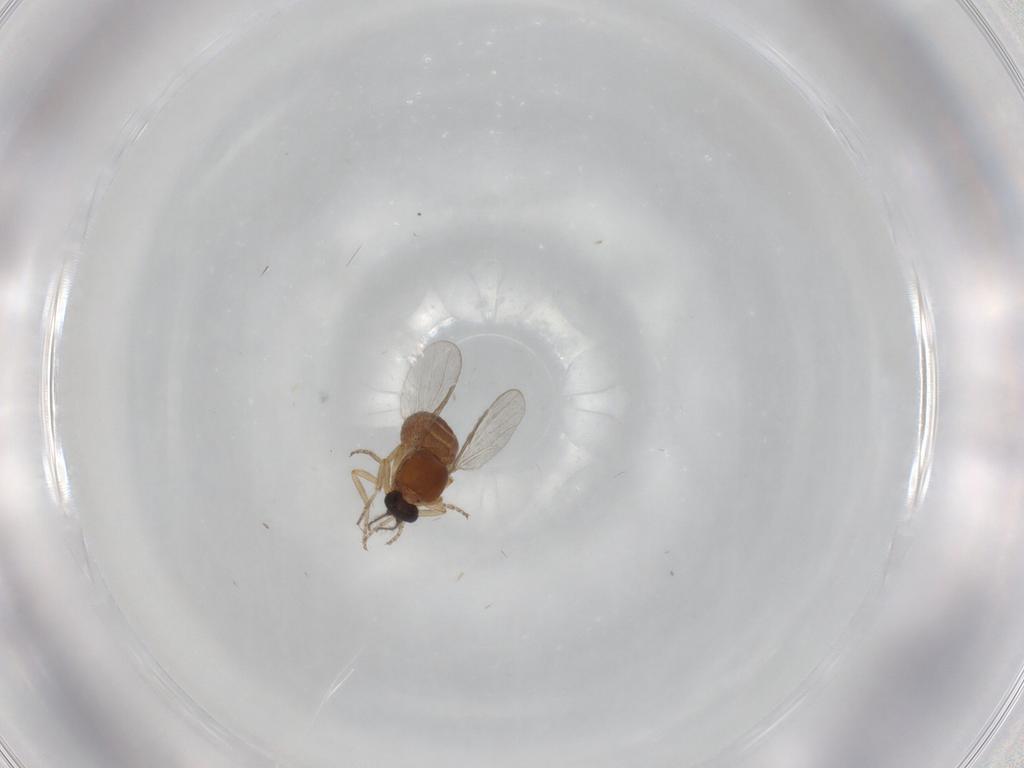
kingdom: Animalia
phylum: Arthropoda
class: Insecta
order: Diptera
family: Ceratopogonidae
